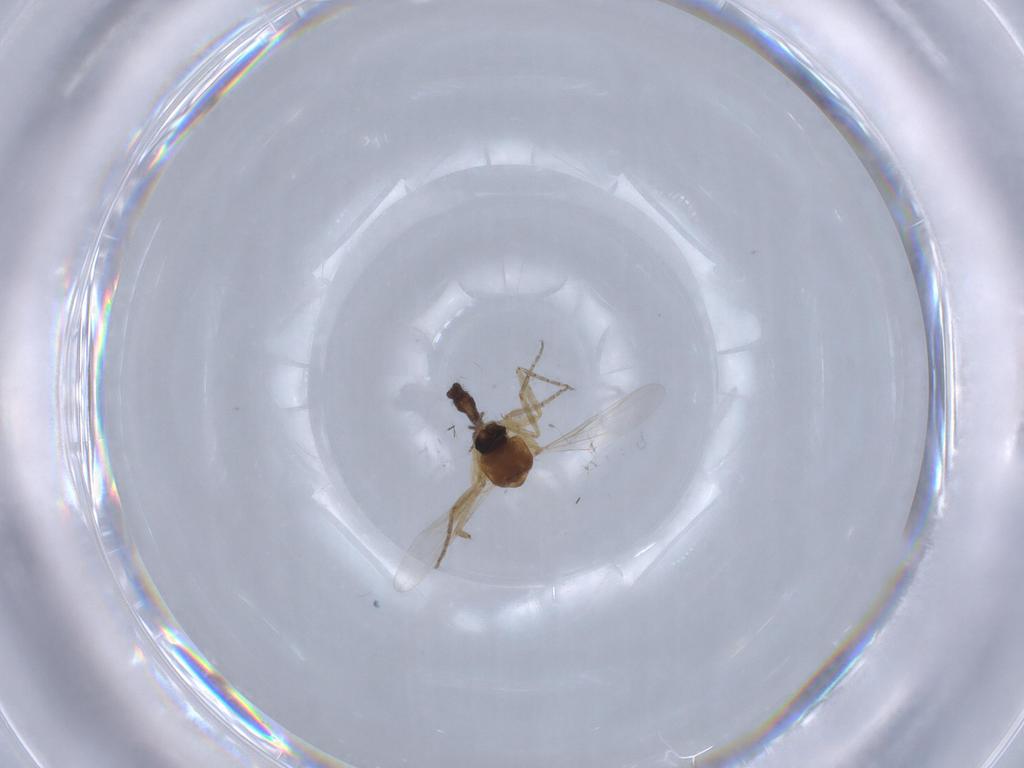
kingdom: Animalia
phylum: Arthropoda
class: Insecta
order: Diptera
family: Ceratopogonidae
